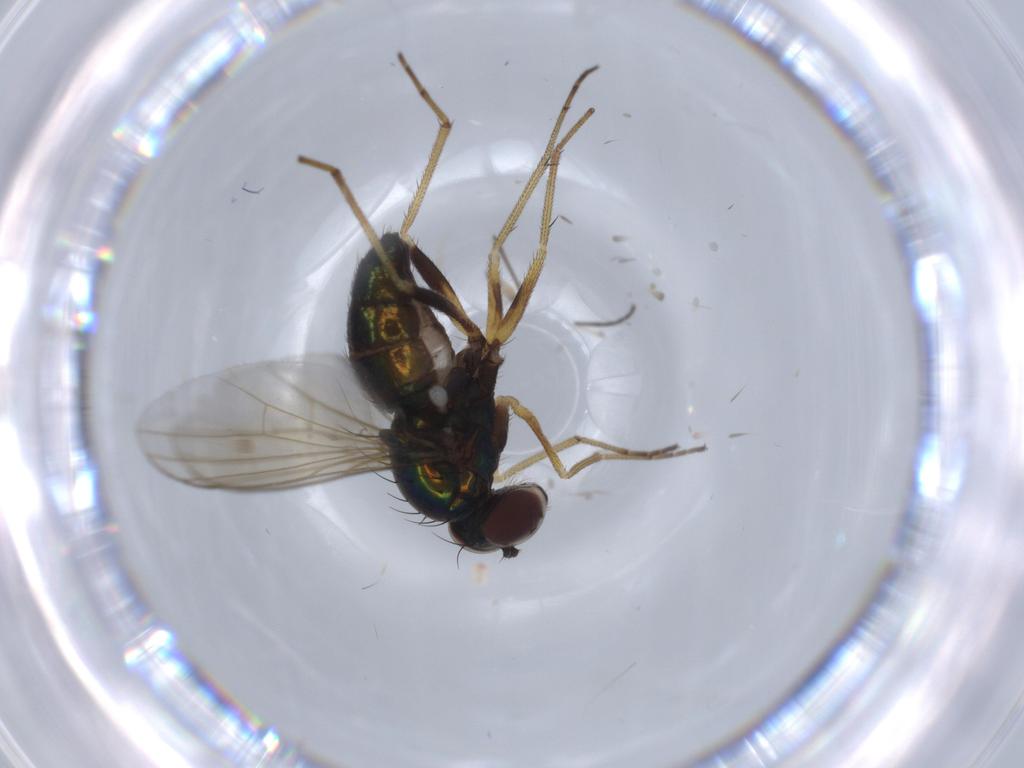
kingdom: Animalia
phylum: Arthropoda
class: Insecta
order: Diptera
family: Dolichopodidae
